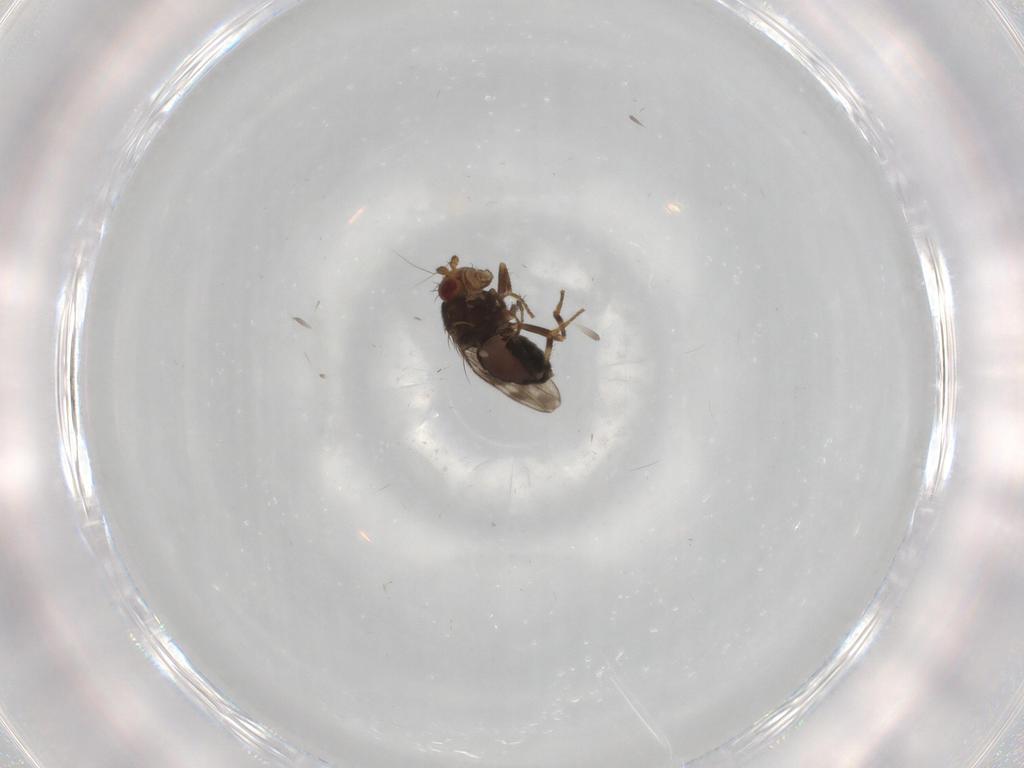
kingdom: Animalia
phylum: Arthropoda
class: Insecta
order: Diptera
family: Sphaeroceridae
